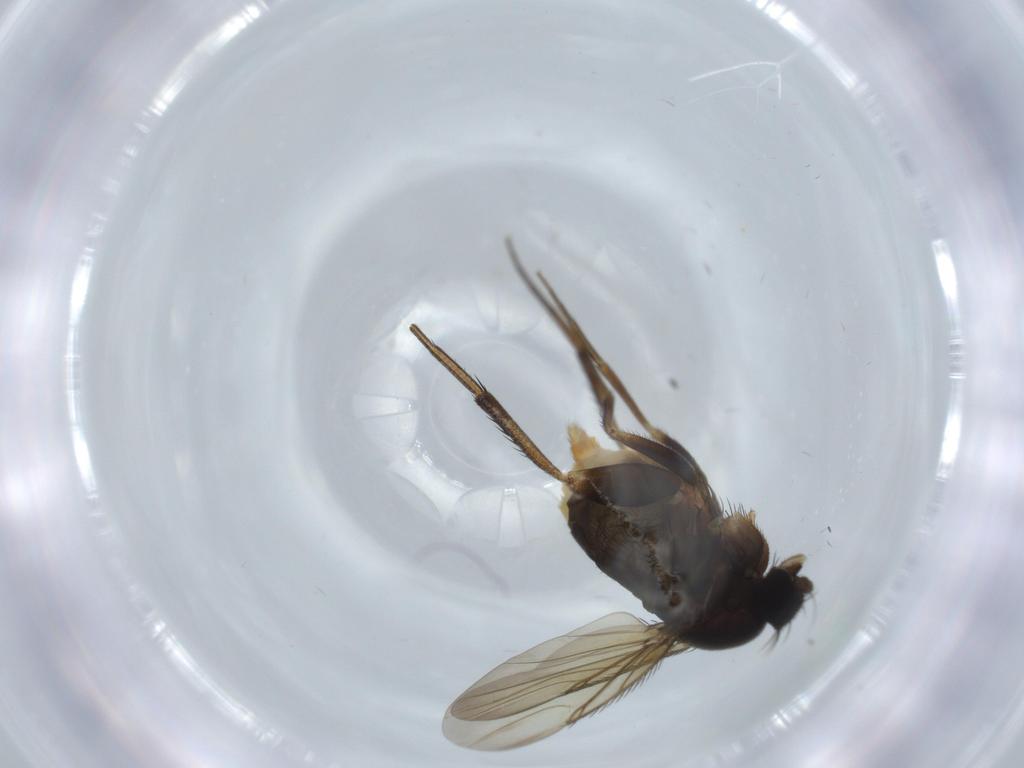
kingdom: Animalia
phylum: Arthropoda
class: Insecta
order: Diptera
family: Phoridae
